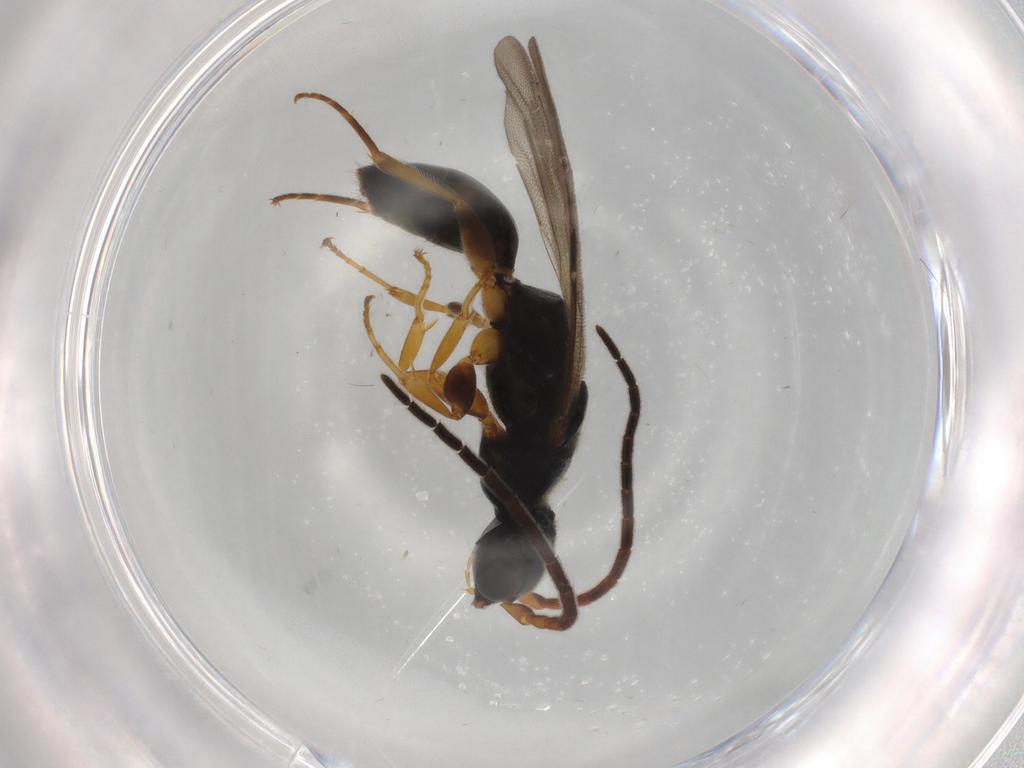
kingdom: Animalia
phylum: Arthropoda
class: Insecta
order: Hymenoptera
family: Bethylidae
